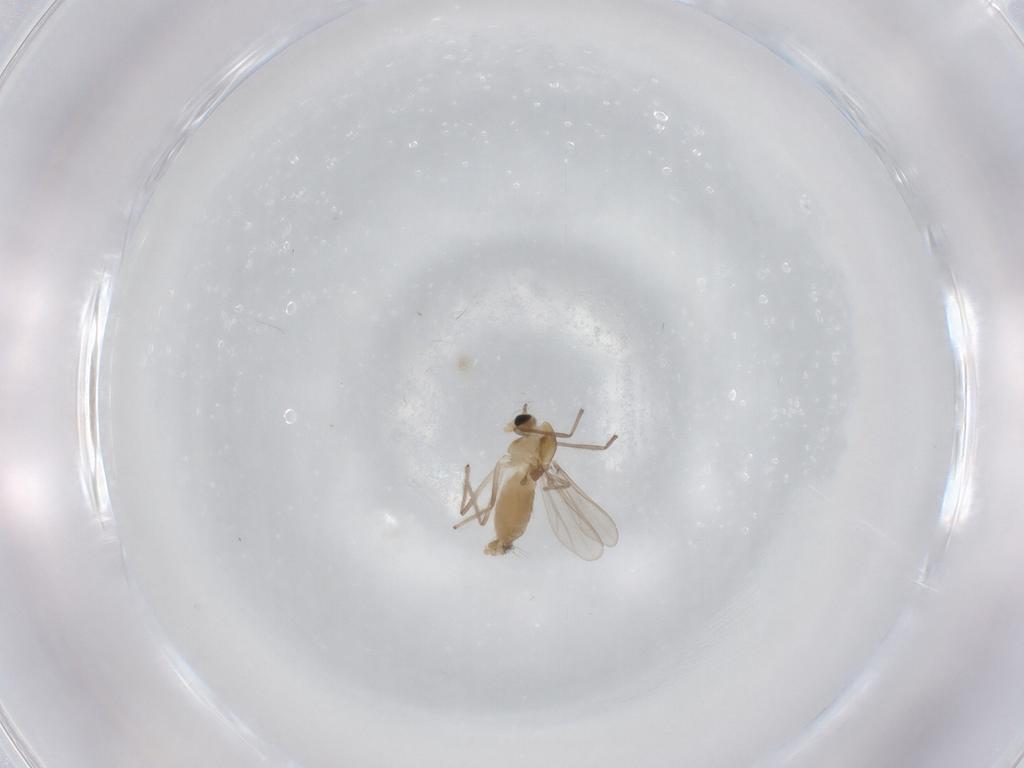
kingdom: Animalia
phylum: Arthropoda
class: Insecta
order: Diptera
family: Chironomidae
